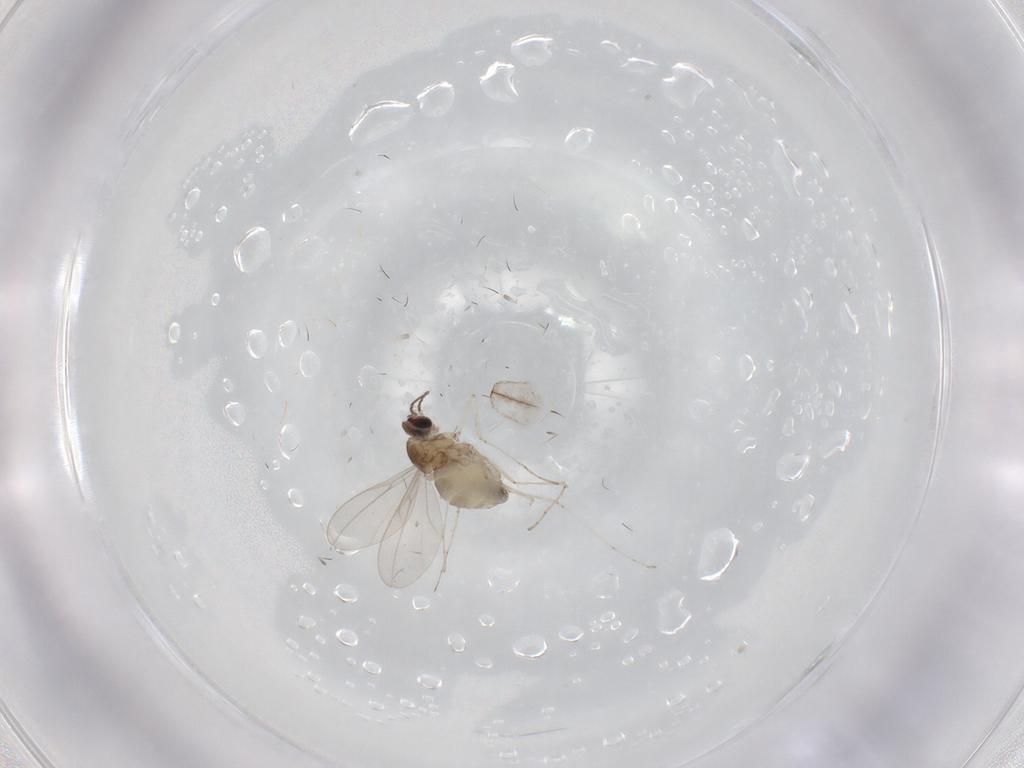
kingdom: Animalia
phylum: Arthropoda
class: Insecta
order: Diptera
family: Cecidomyiidae
